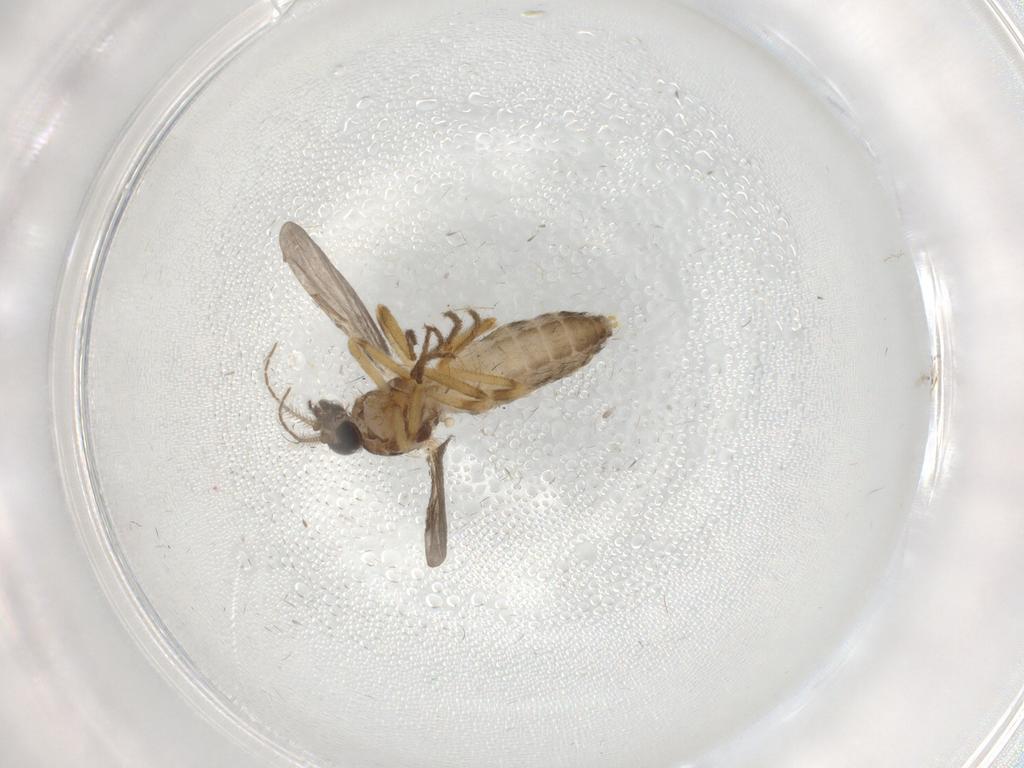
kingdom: Animalia
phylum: Arthropoda
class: Insecta
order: Diptera
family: Ceratopogonidae
